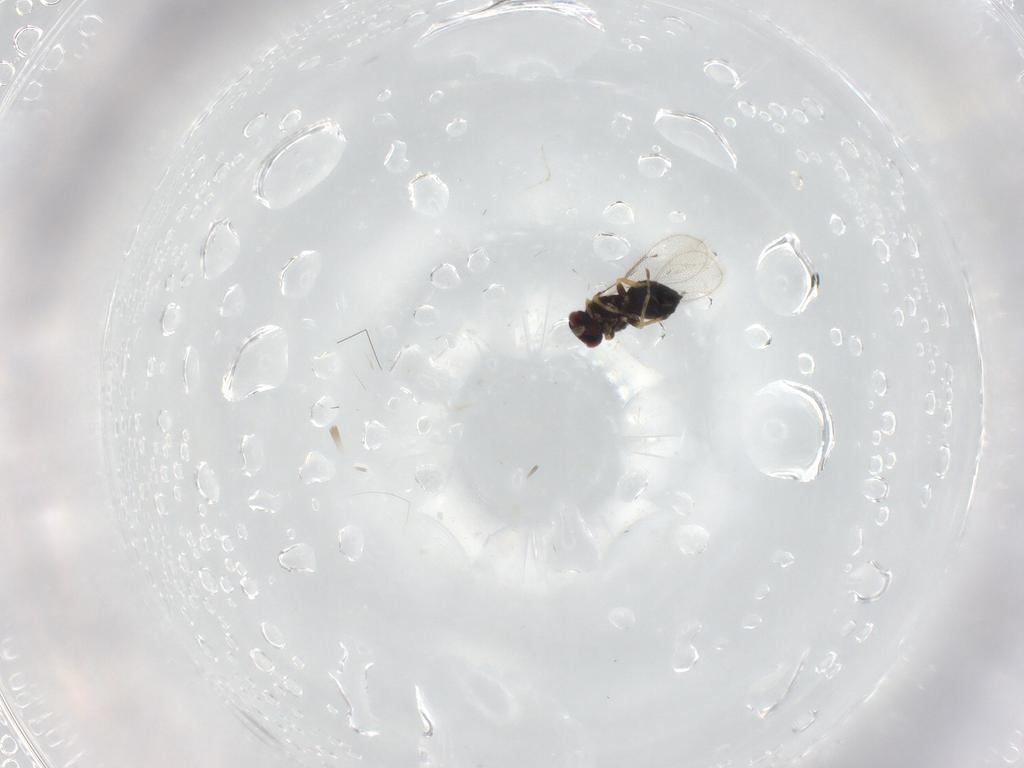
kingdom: Animalia
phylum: Arthropoda
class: Insecta
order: Hymenoptera
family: Eulophidae
